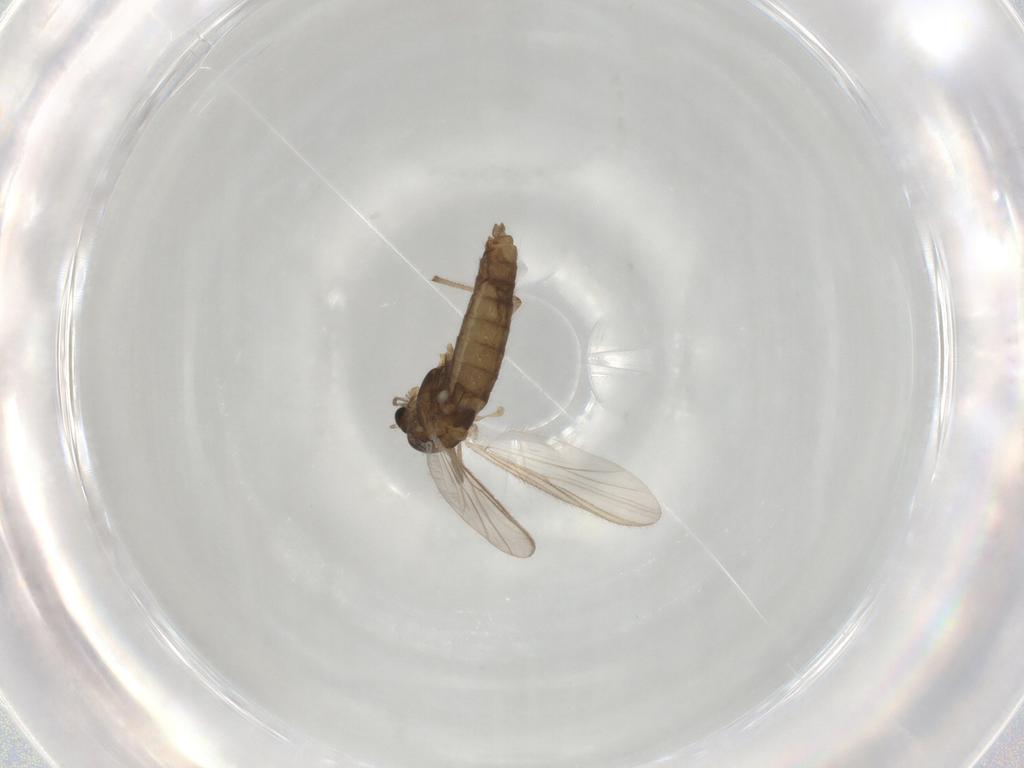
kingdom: Animalia
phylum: Arthropoda
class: Insecta
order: Diptera
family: Chironomidae
